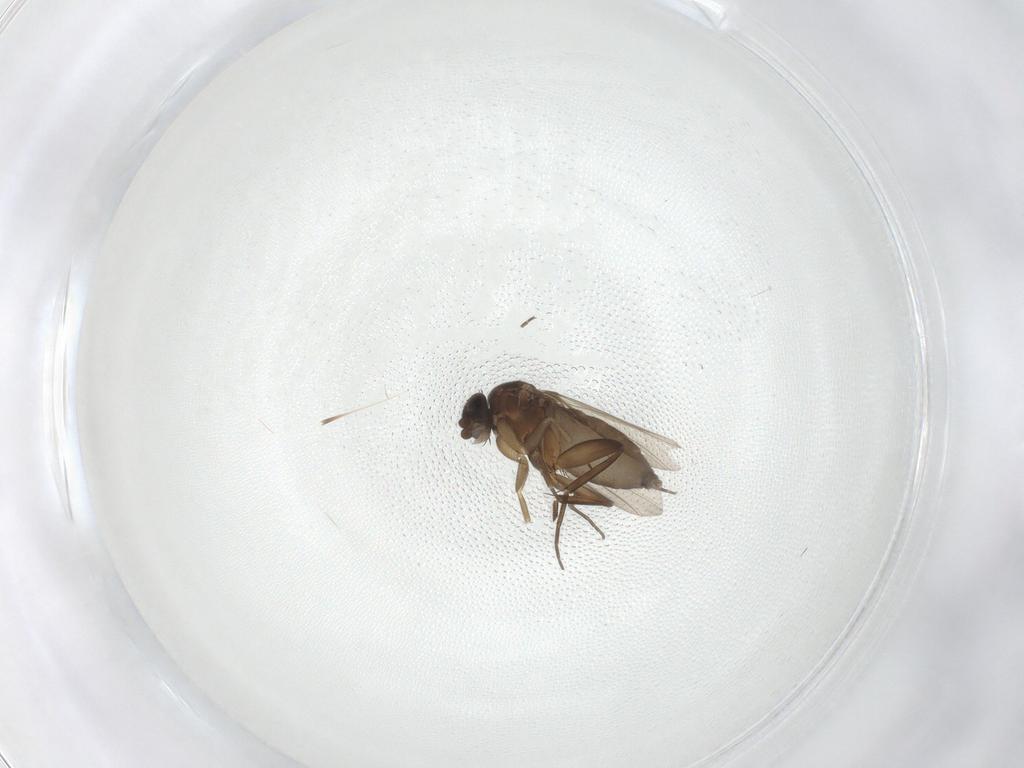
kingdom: Animalia
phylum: Arthropoda
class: Insecta
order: Diptera
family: Phoridae
